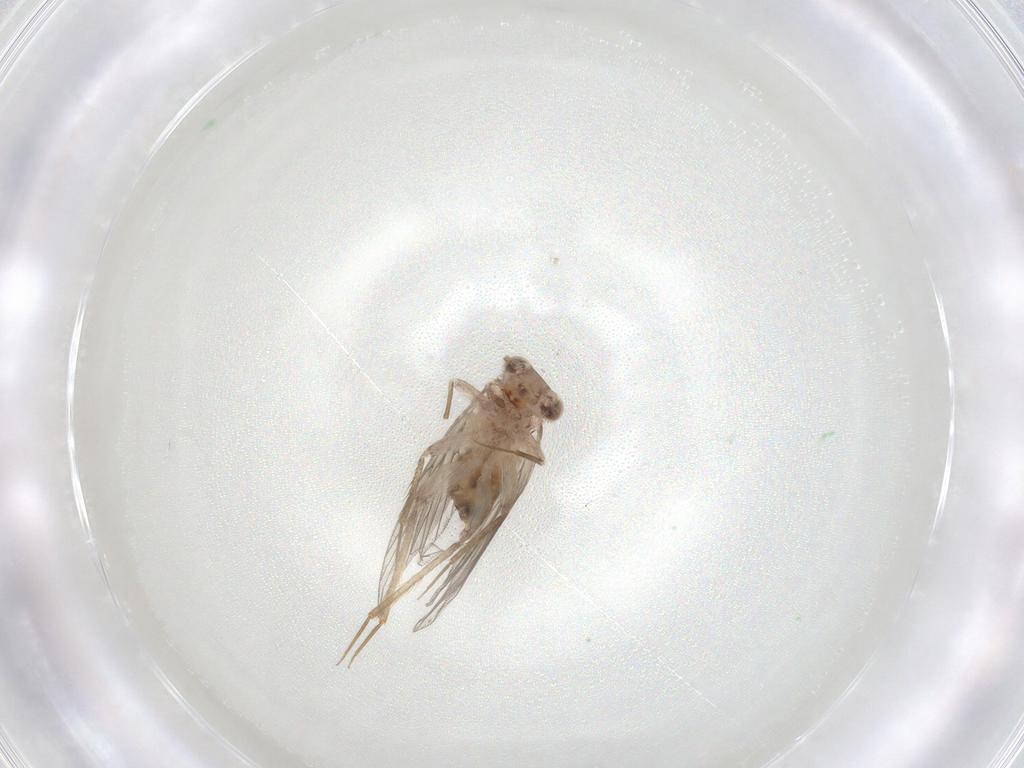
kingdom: Animalia
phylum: Arthropoda
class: Insecta
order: Psocodea
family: Lepidopsocidae
